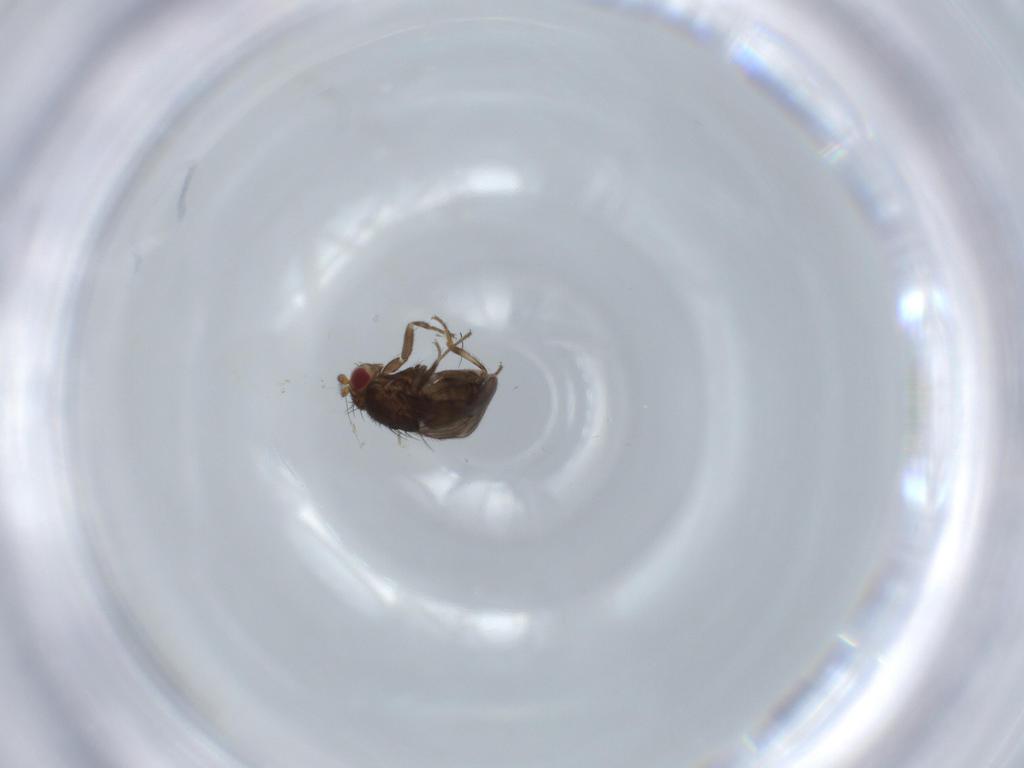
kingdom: Animalia
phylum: Arthropoda
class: Insecta
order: Diptera
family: Sphaeroceridae
